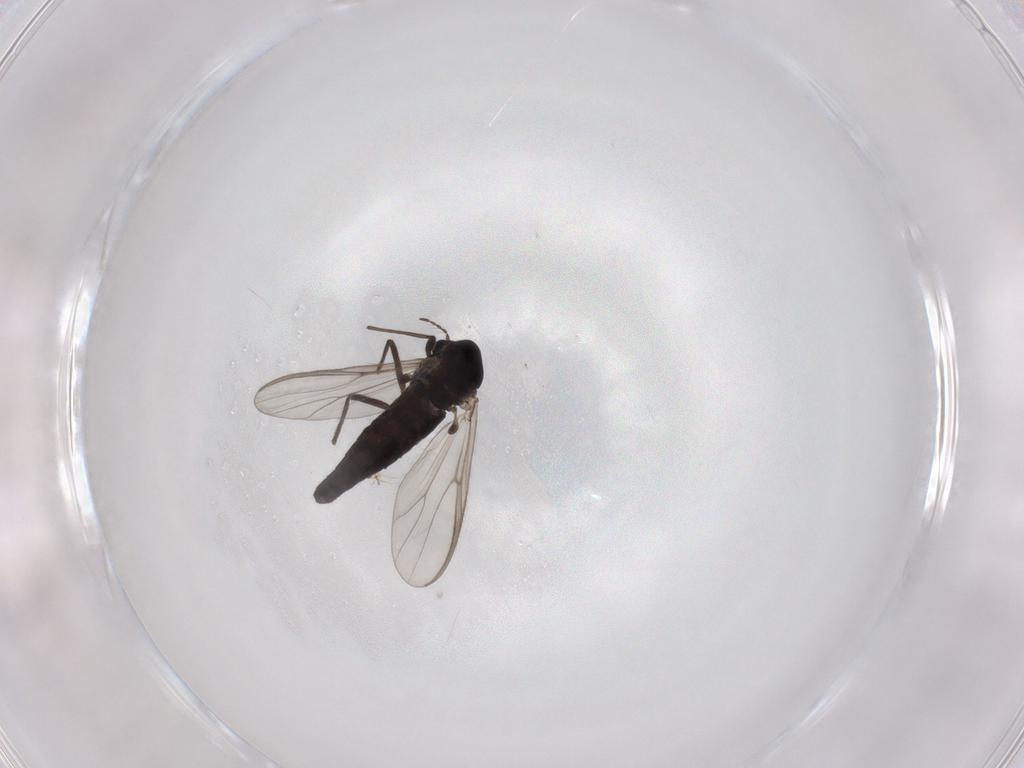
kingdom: Animalia
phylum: Arthropoda
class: Insecta
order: Diptera
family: Chironomidae
